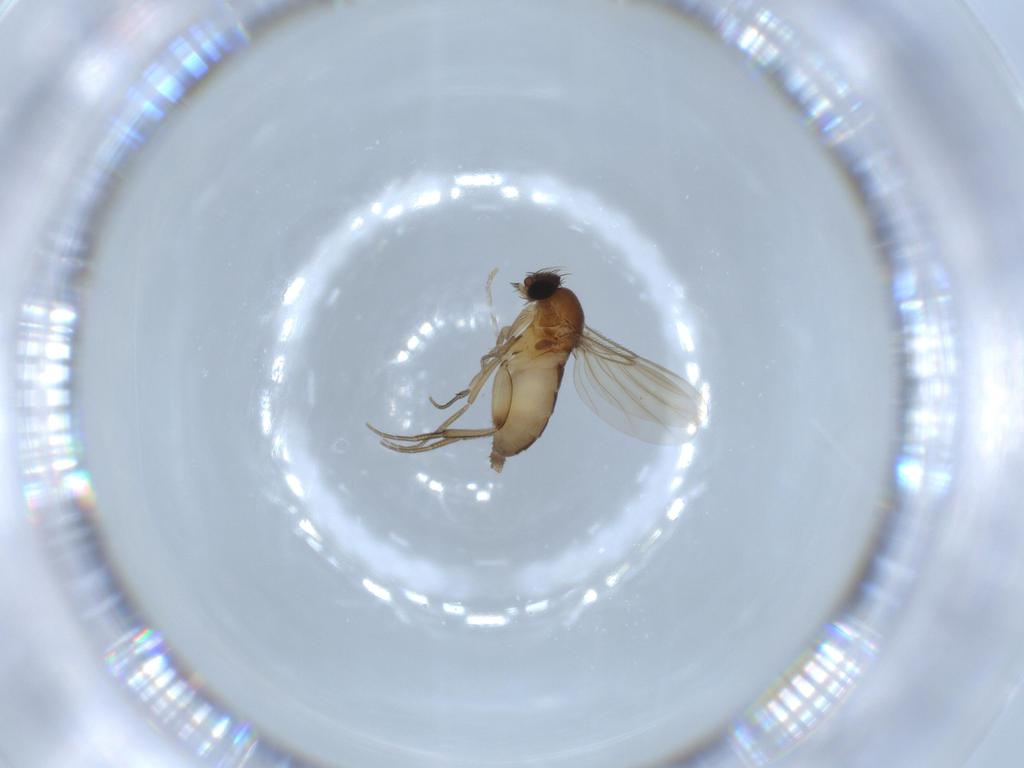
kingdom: Animalia
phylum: Arthropoda
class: Insecta
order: Diptera
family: Phoridae
